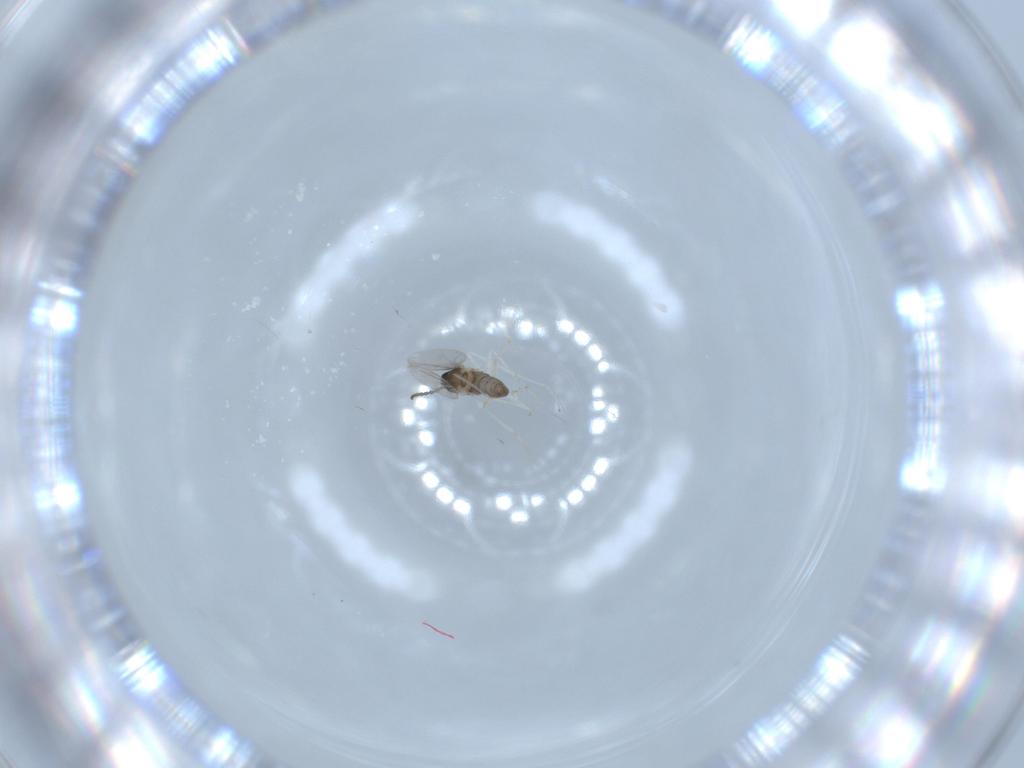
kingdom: Animalia
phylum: Arthropoda
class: Insecta
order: Diptera
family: Cecidomyiidae
